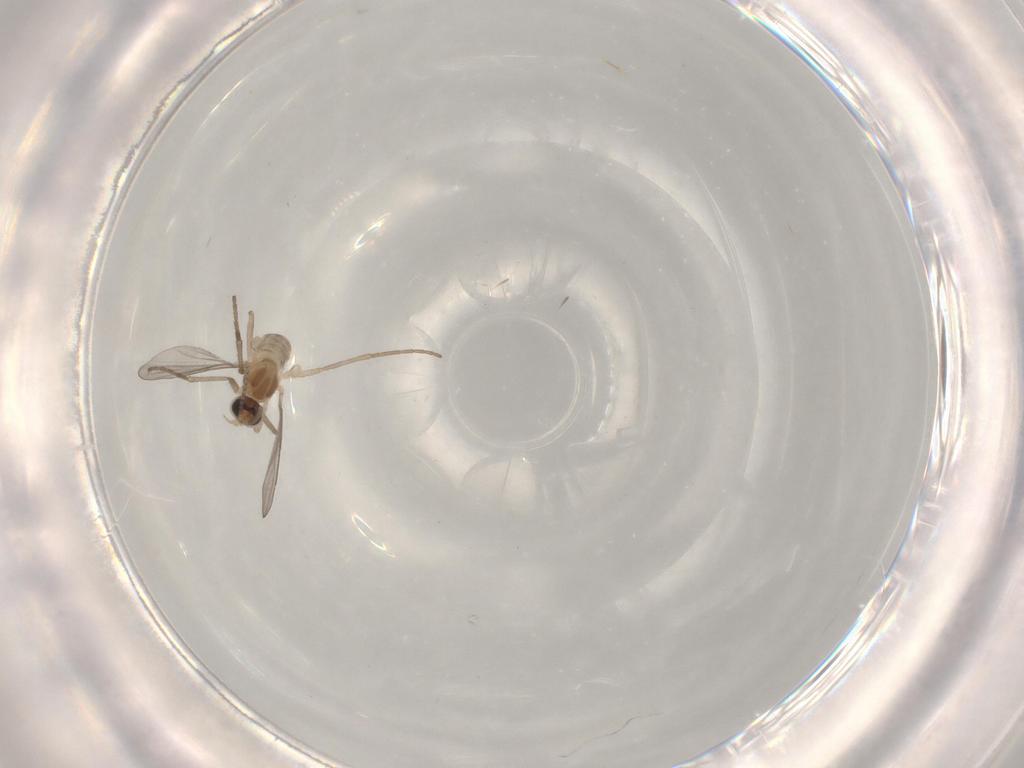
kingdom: Animalia
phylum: Arthropoda
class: Insecta
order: Diptera
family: Cecidomyiidae
